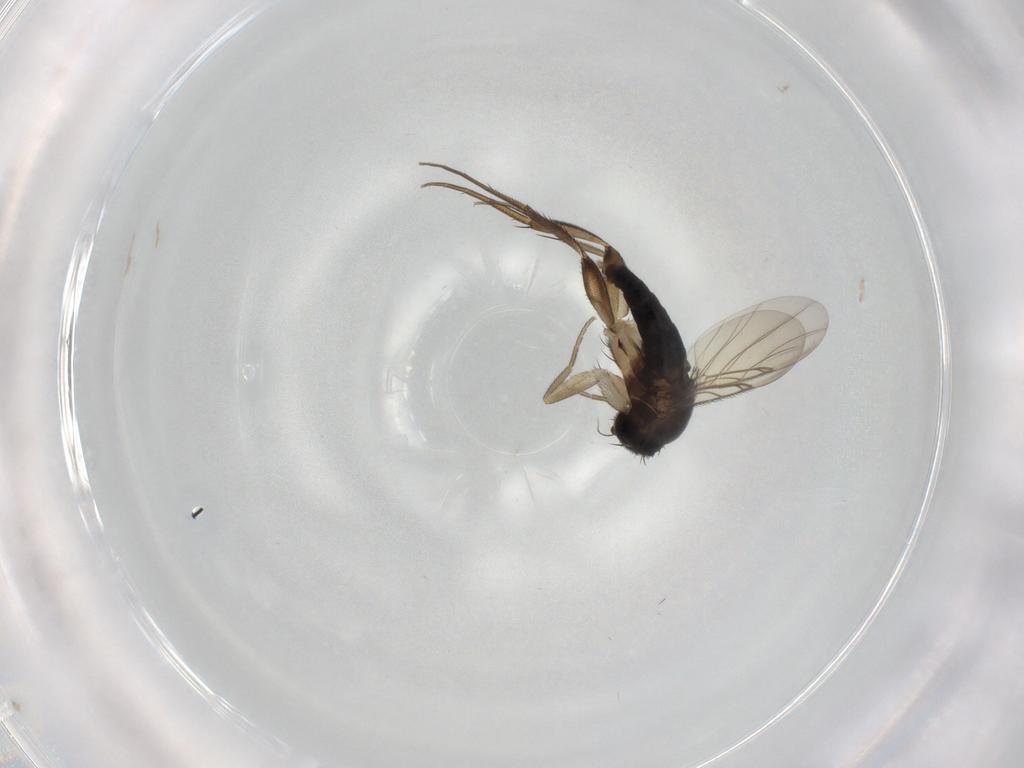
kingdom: Animalia
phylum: Arthropoda
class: Insecta
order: Diptera
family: Phoridae
